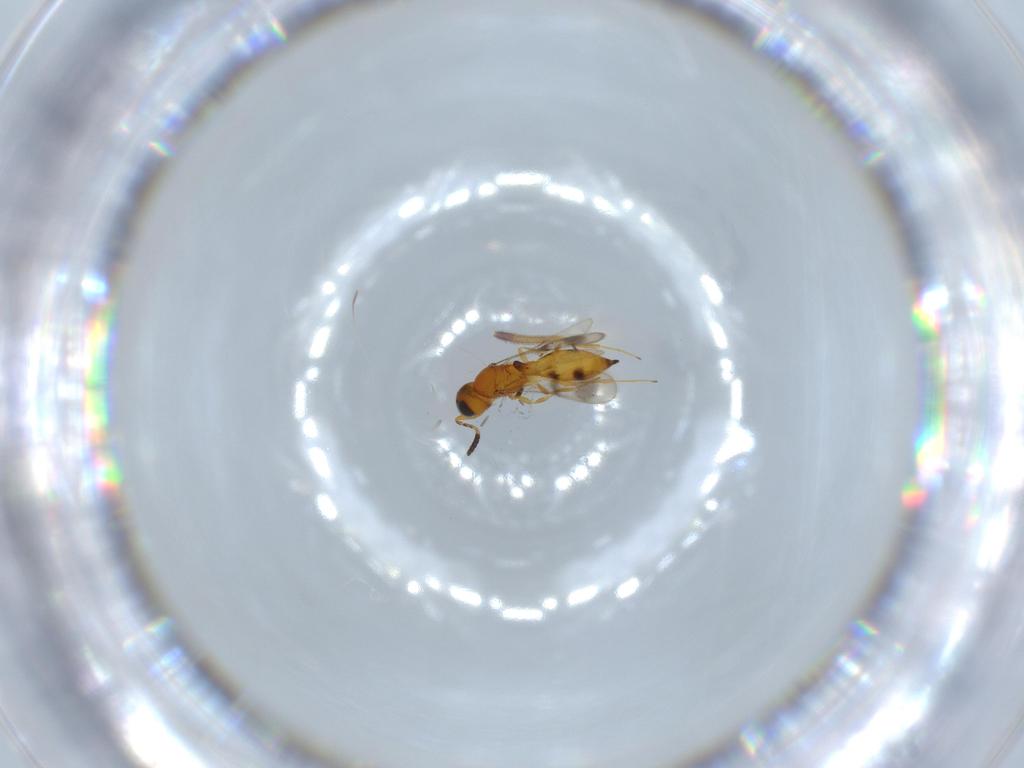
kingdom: Animalia
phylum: Arthropoda
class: Insecta
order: Hymenoptera
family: Scelionidae
